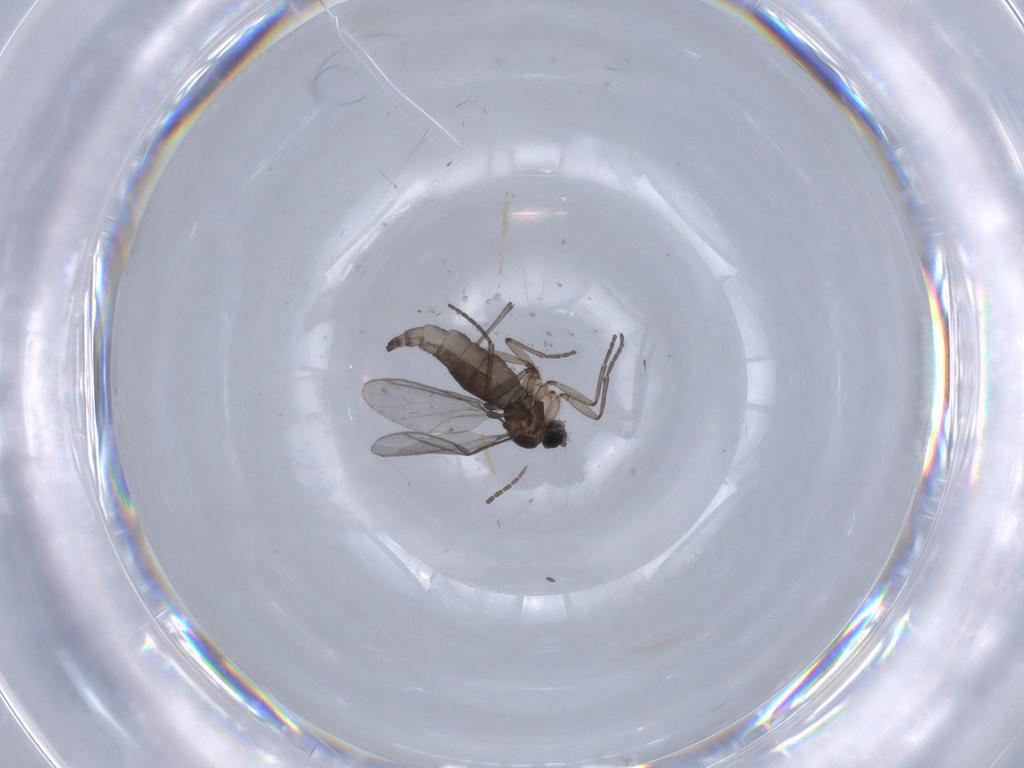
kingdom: Animalia
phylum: Arthropoda
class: Insecta
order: Diptera
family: Sciaridae
